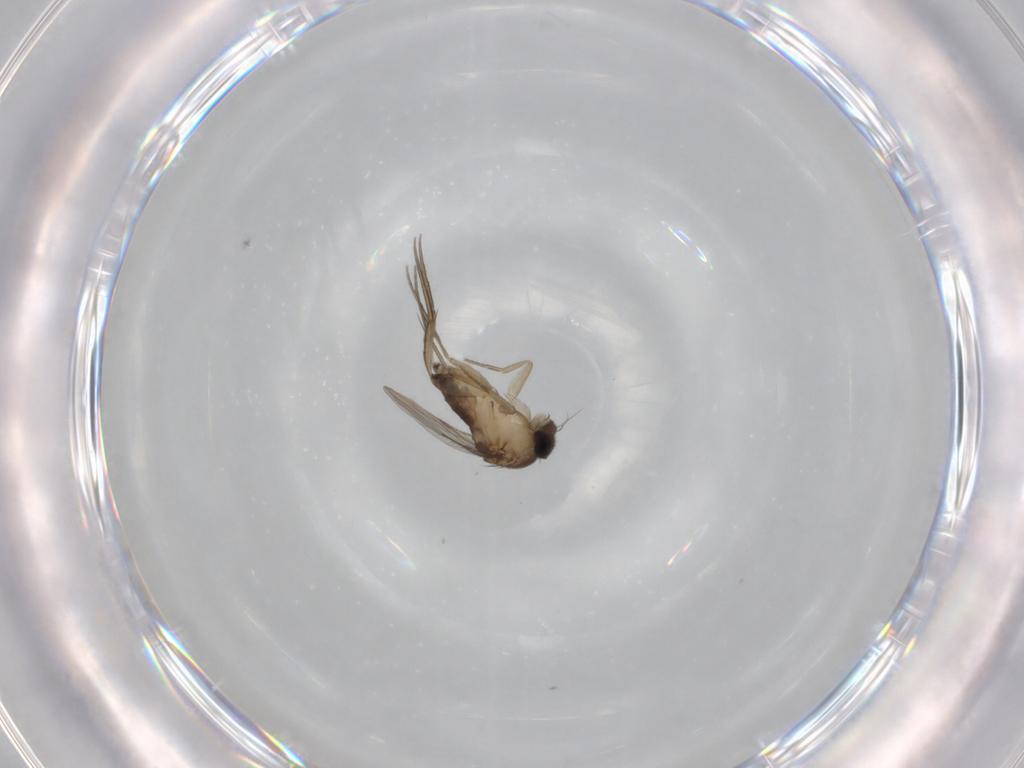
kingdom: Animalia
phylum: Arthropoda
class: Insecta
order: Diptera
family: Phoridae
